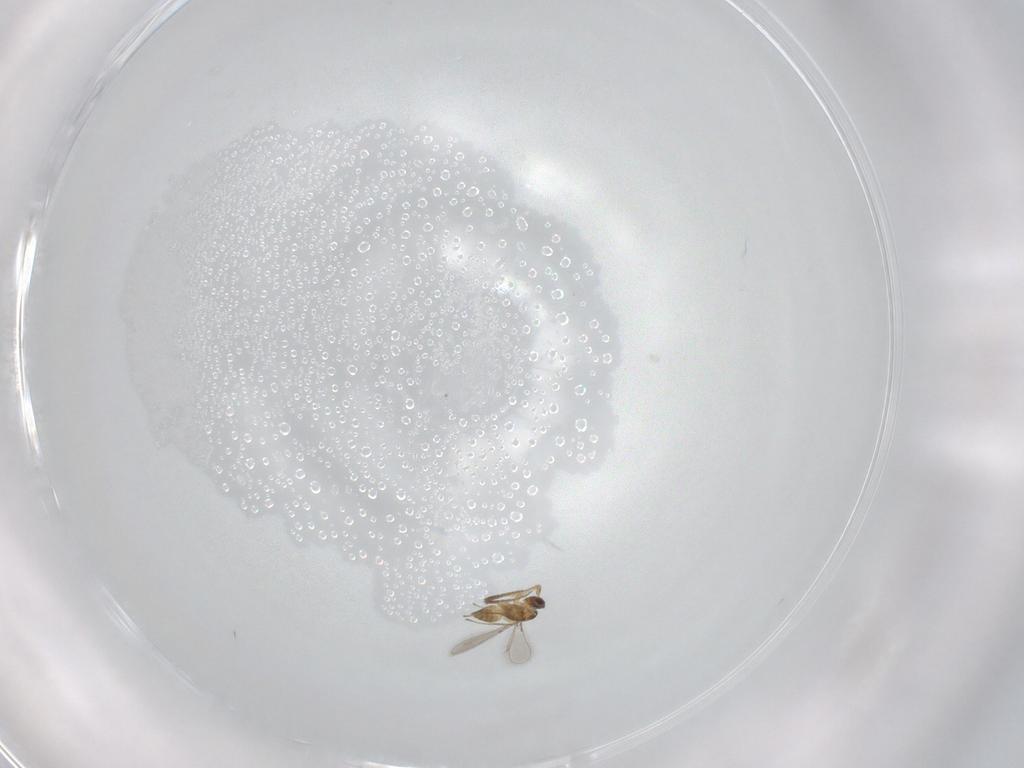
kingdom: Animalia
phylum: Arthropoda
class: Insecta
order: Hymenoptera
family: Mymaridae
